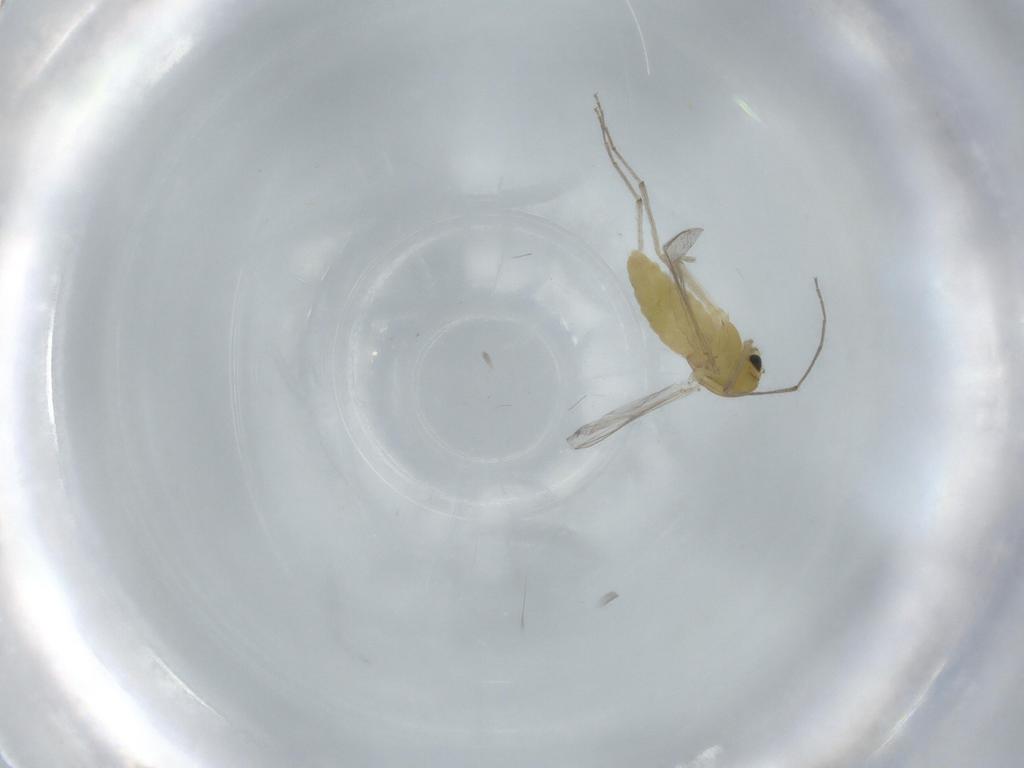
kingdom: Animalia
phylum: Arthropoda
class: Insecta
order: Diptera
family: Chironomidae
